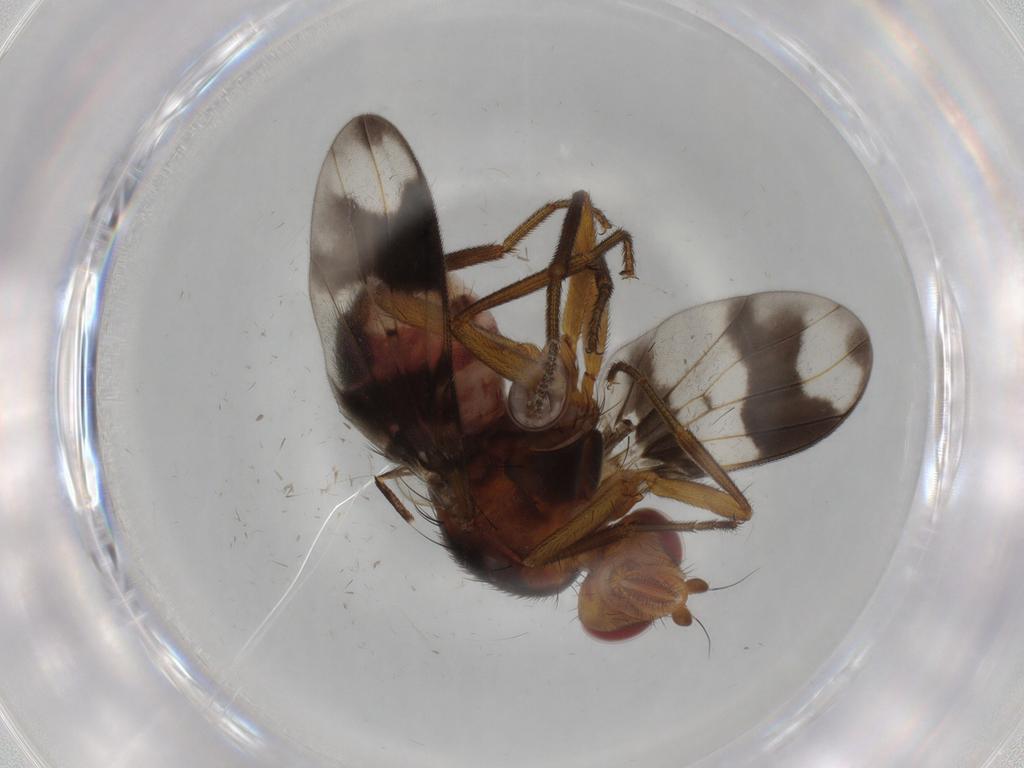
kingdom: Animalia
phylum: Arthropoda
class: Insecta
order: Diptera
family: Richardiidae
